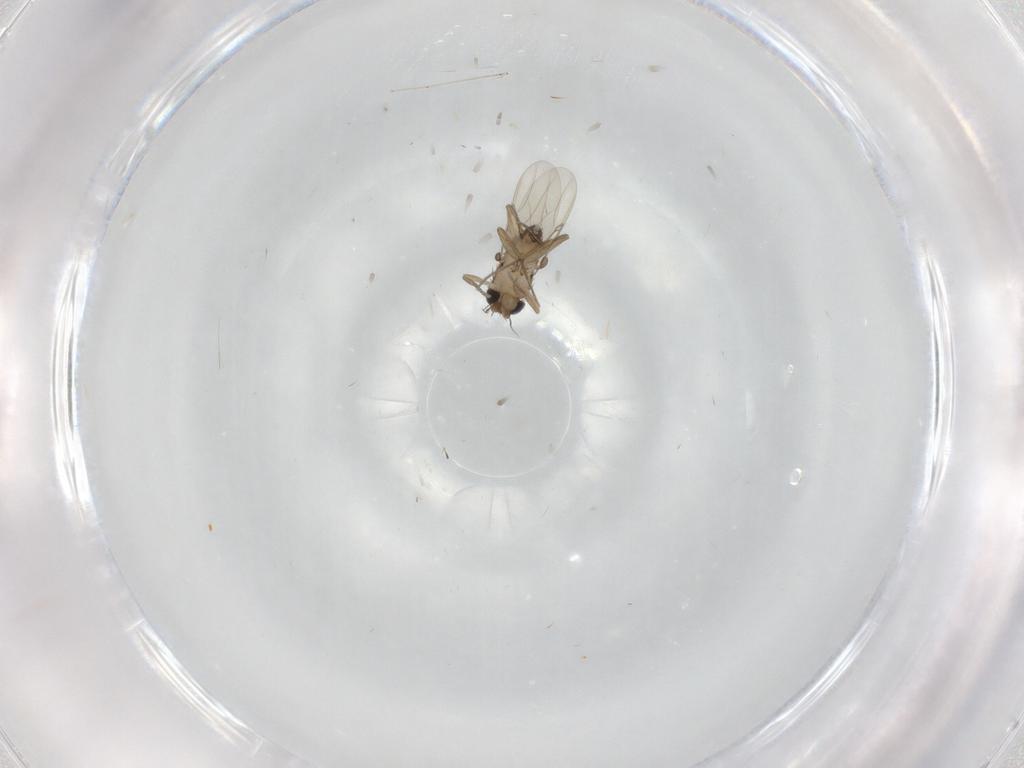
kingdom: Animalia
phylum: Arthropoda
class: Insecta
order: Diptera
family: Phoridae
